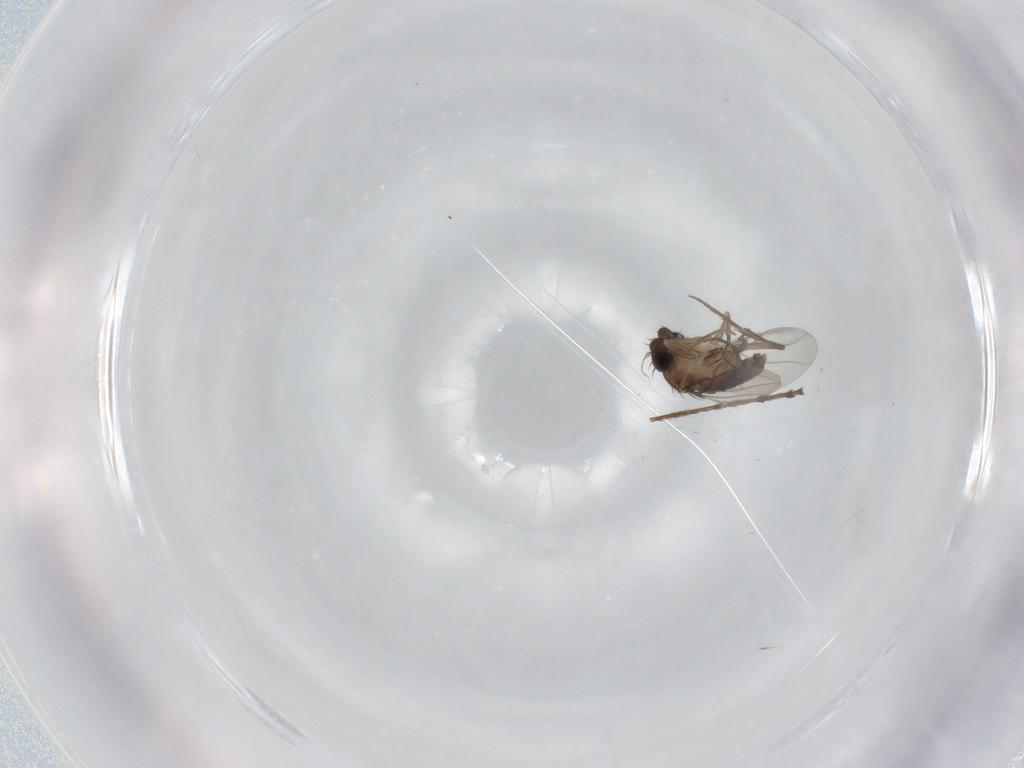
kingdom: Animalia
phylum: Arthropoda
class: Insecta
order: Diptera
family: Phoridae
